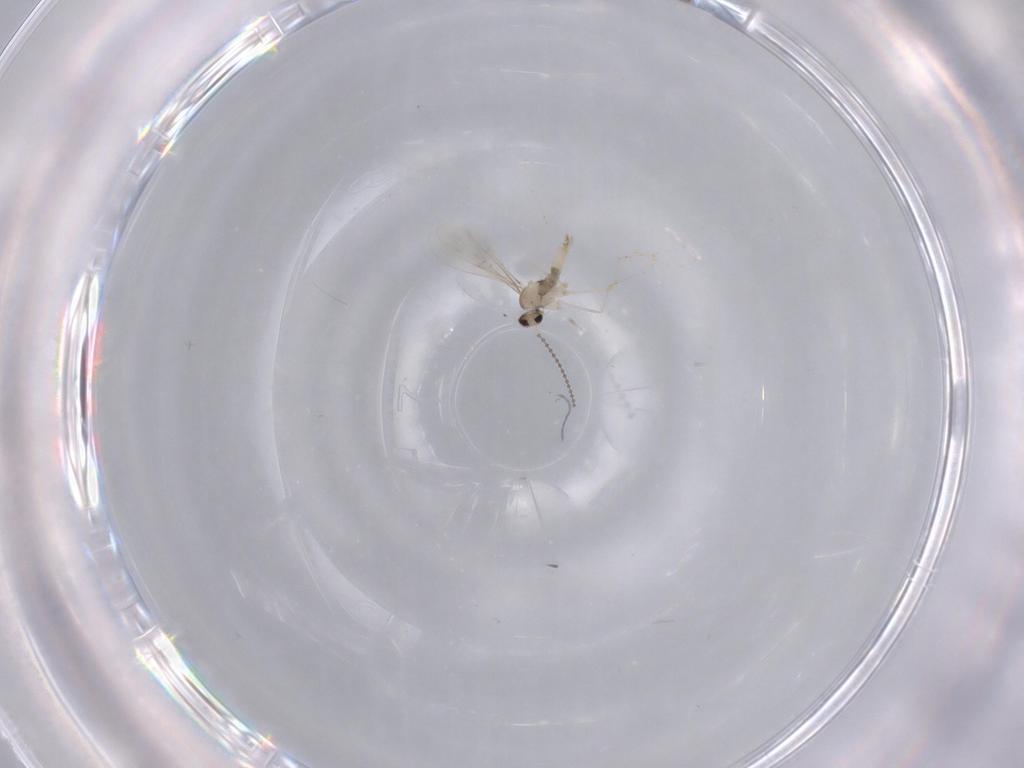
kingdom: Animalia
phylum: Arthropoda
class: Insecta
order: Diptera
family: Cecidomyiidae
